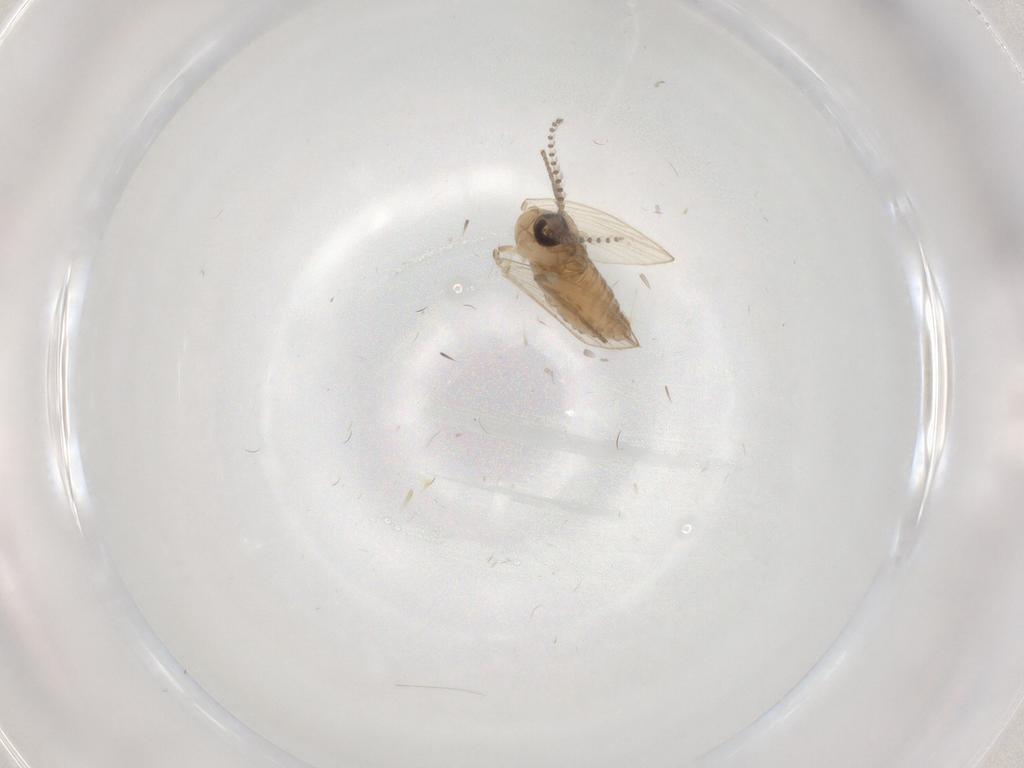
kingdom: Animalia
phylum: Arthropoda
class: Insecta
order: Diptera
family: Psychodidae
